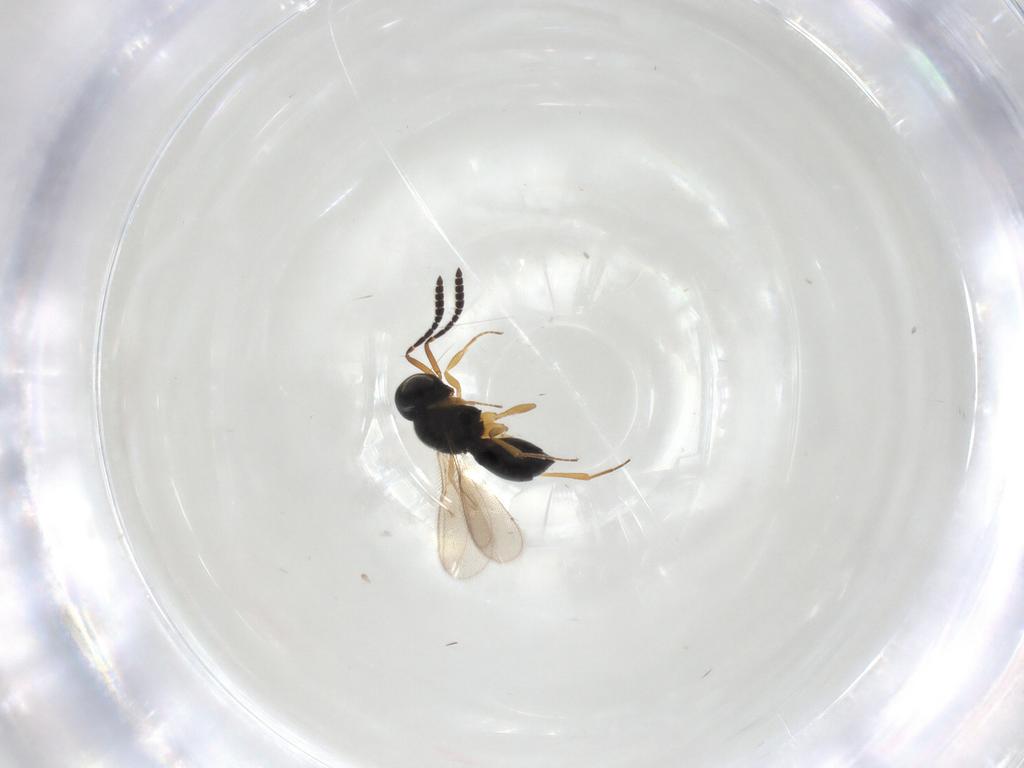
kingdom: Animalia
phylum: Arthropoda
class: Insecta
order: Hymenoptera
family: Scelionidae
